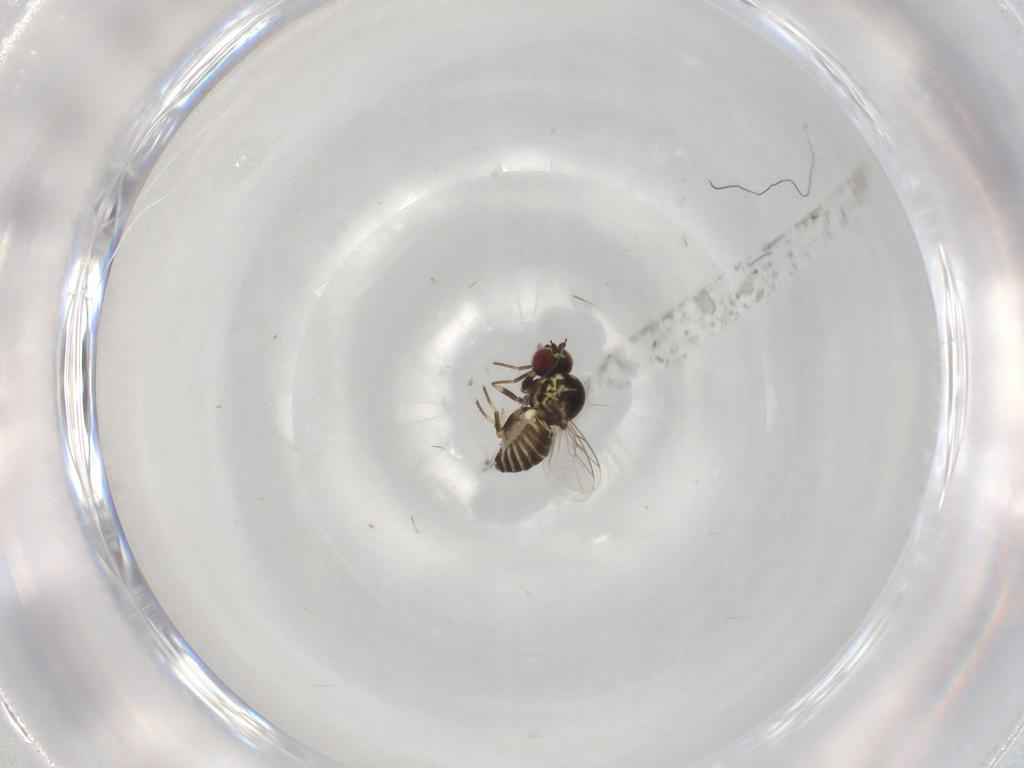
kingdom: Animalia
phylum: Arthropoda
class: Insecta
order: Diptera
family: Mythicomyiidae
